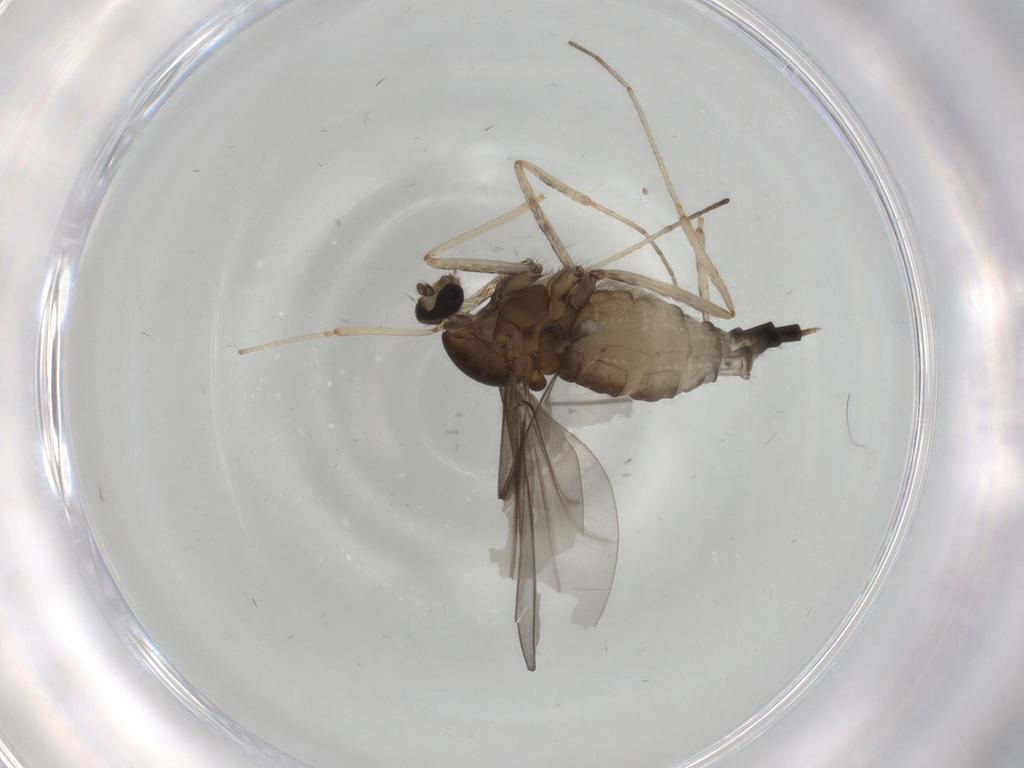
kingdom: Animalia
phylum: Arthropoda
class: Insecta
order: Diptera
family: Cecidomyiidae
